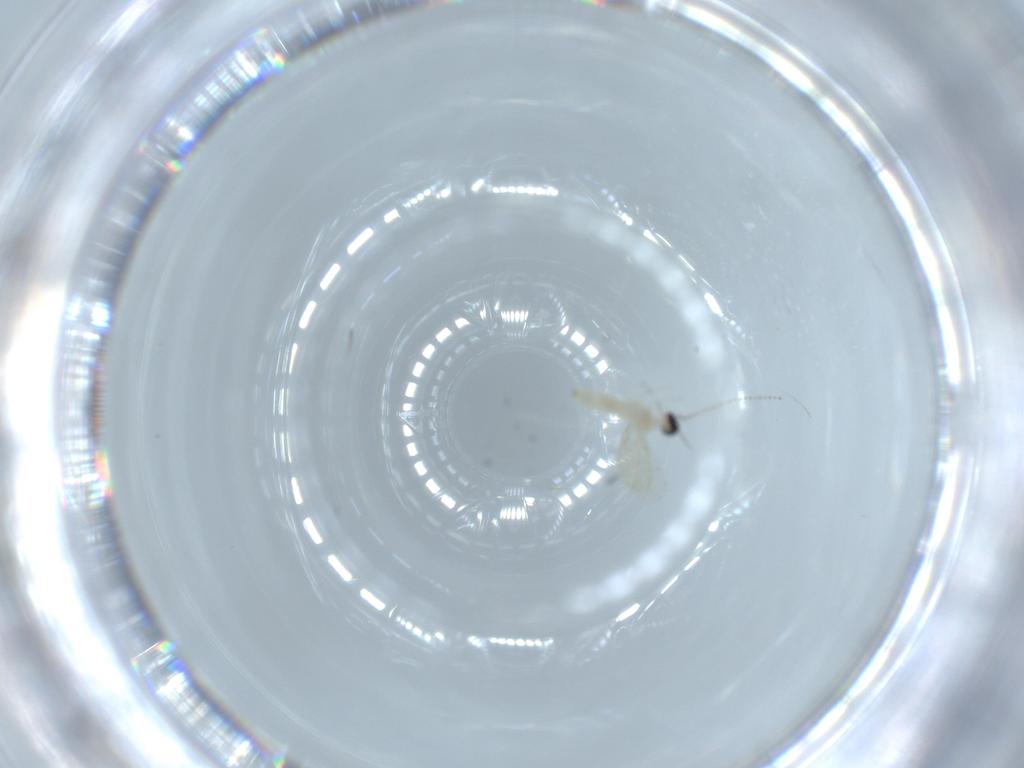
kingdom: Animalia
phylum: Arthropoda
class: Insecta
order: Diptera
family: Cecidomyiidae
